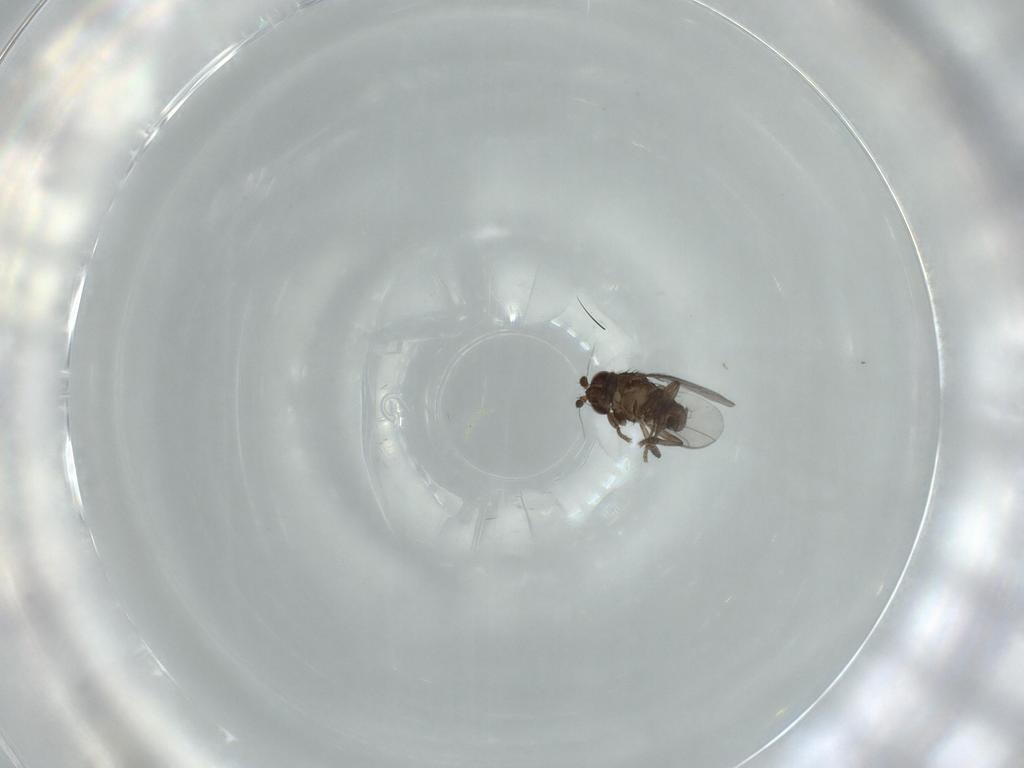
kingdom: Animalia
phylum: Arthropoda
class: Insecta
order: Diptera
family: Sphaeroceridae
